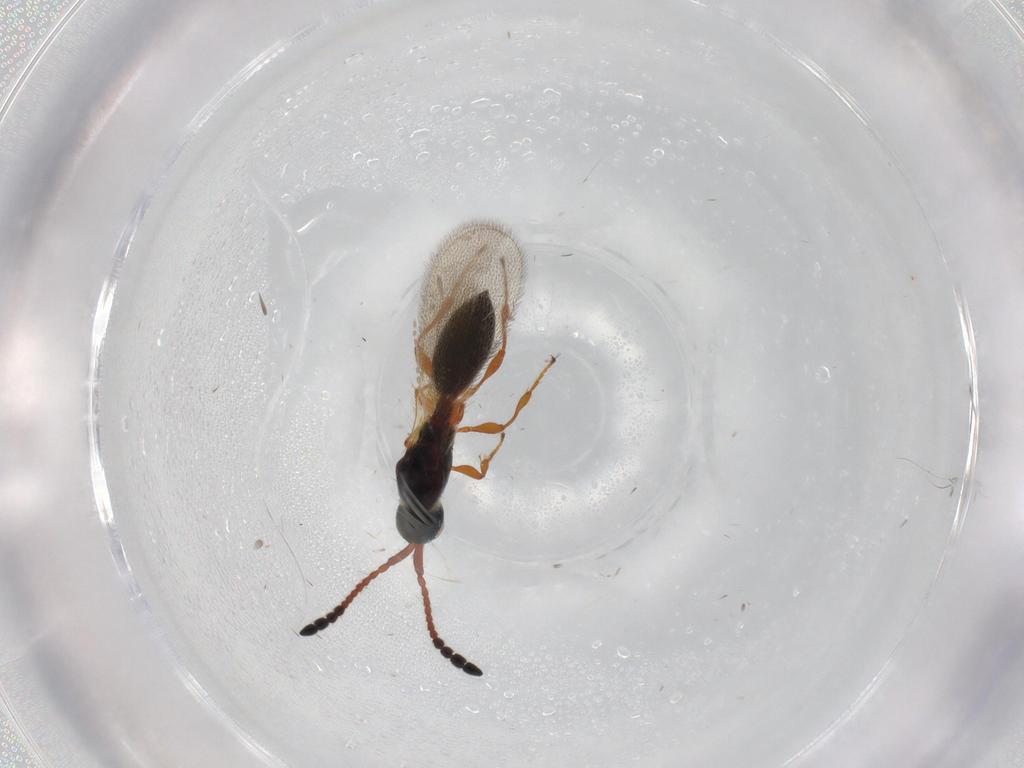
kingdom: Animalia
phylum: Arthropoda
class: Insecta
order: Hymenoptera
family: Diapriidae
